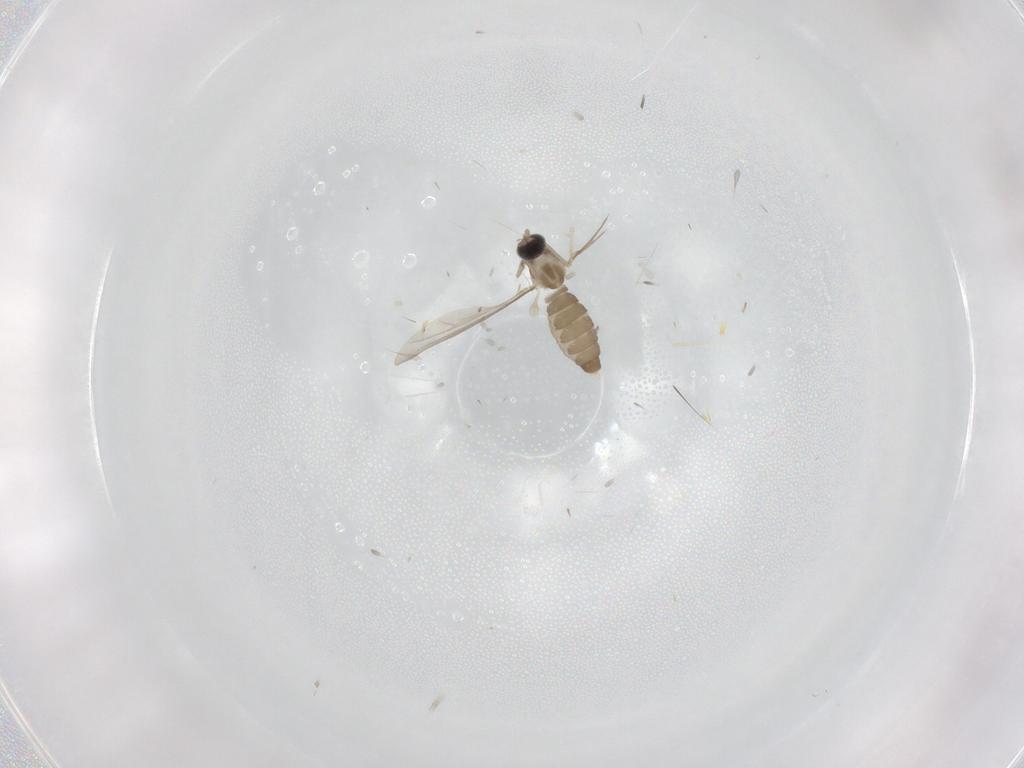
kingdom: Animalia
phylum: Arthropoda
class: Insecta
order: Diptera
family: Cecidomyiidae
